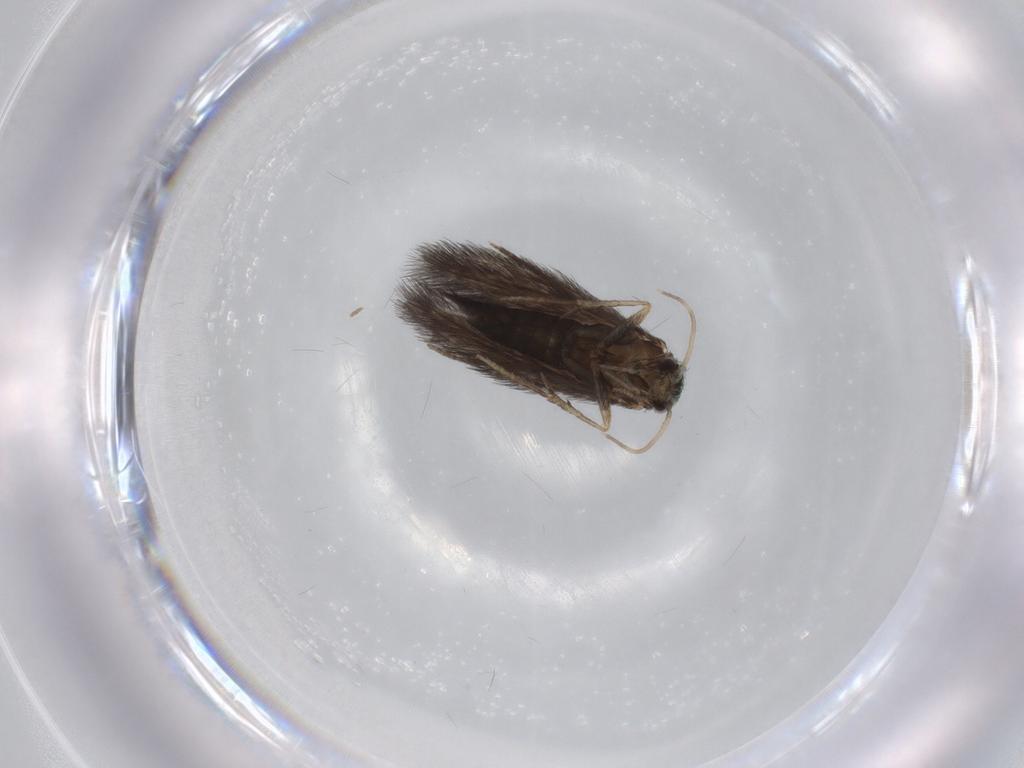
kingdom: Animalia
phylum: Arthropoda
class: Insecta
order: Trichoptera
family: Hydroptilidae
